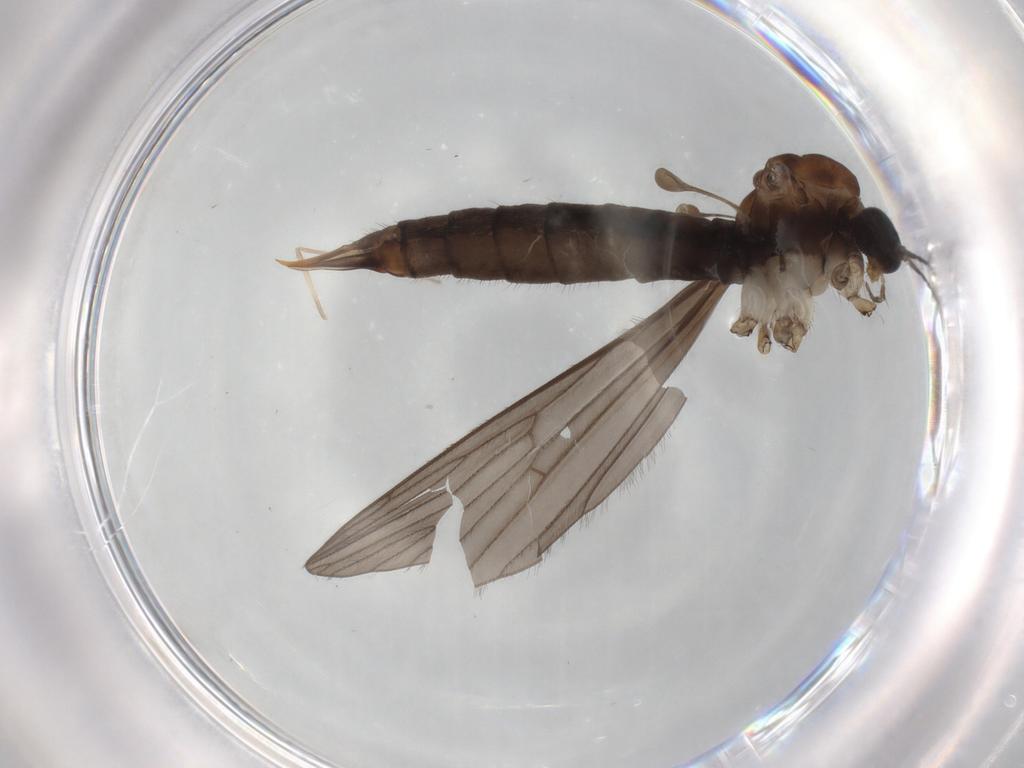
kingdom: Animalia
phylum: Arthropoda
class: Insecta
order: Diptera
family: Limoniidae
